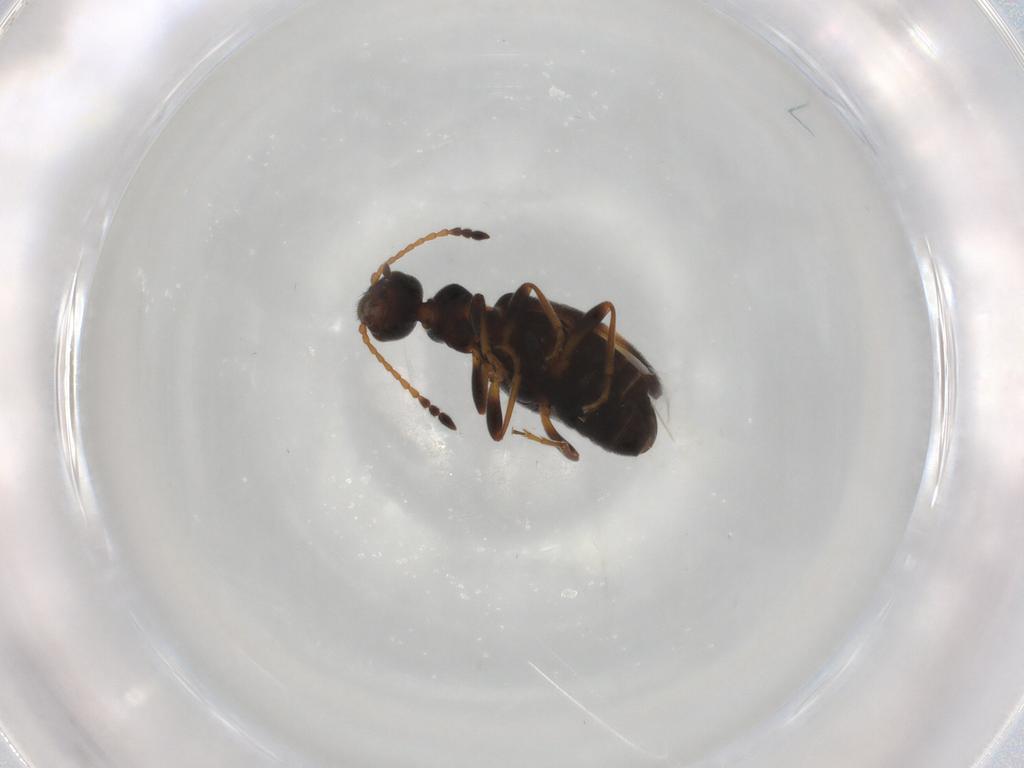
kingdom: Animalia
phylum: Arthropoda
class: Insecta
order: Coleoptera
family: Anthicidae
